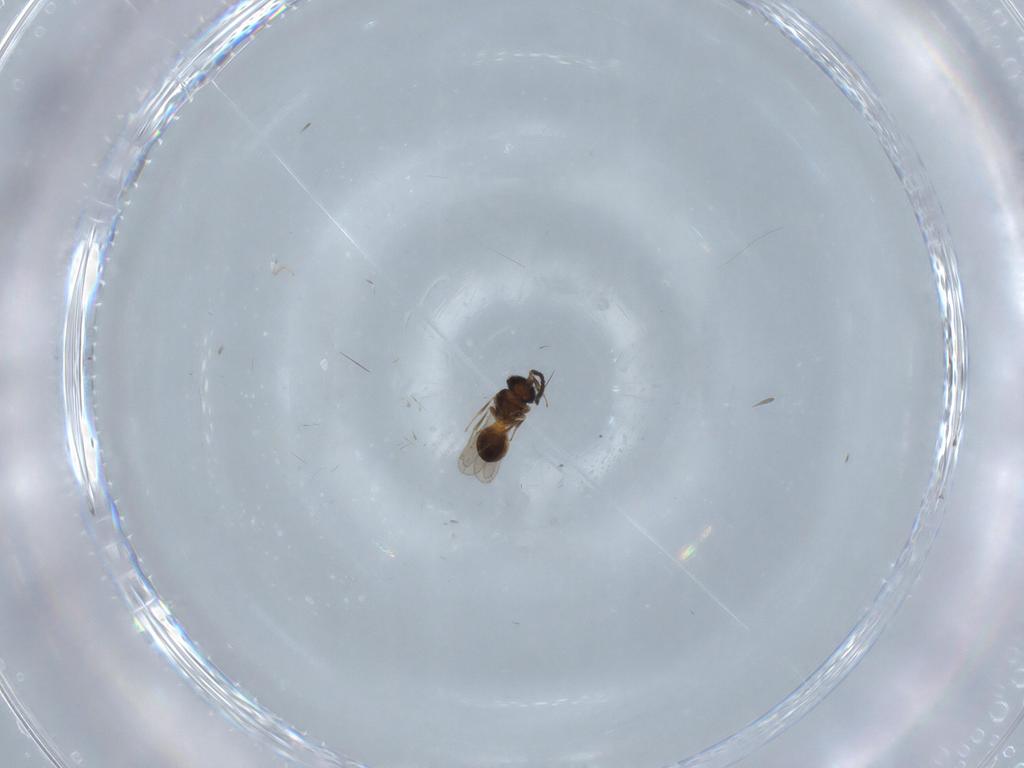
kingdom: Animalia
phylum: Arthropoda
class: Insecta
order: Hymenoptera
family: Scelionidae
